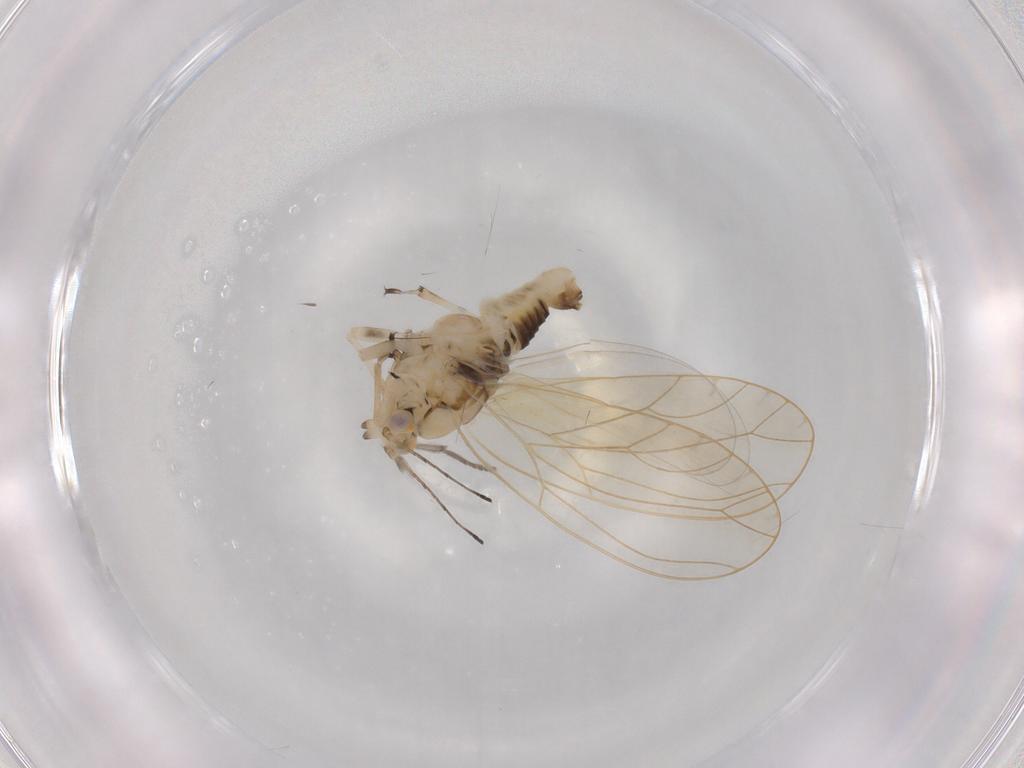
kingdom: Animalia
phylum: Arthropoda
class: Insecta
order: Hemiptera
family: Triozidae
